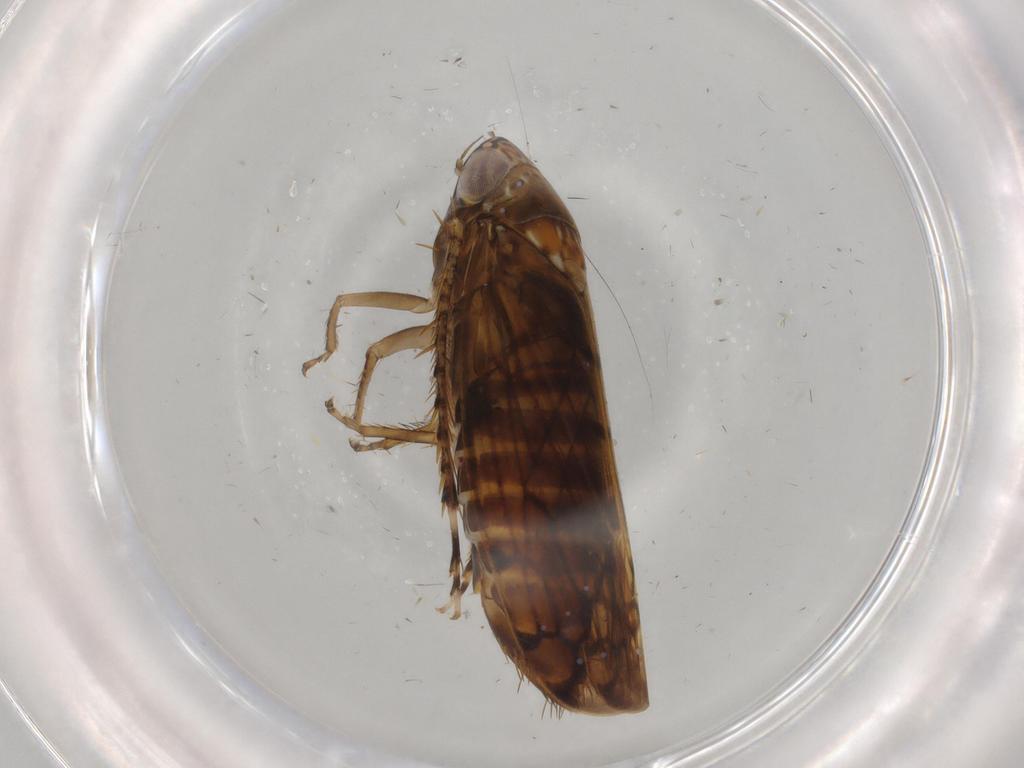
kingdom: Animalia
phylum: Arthropoda
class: Insecta
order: Hemiptera
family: Cicadellidae
